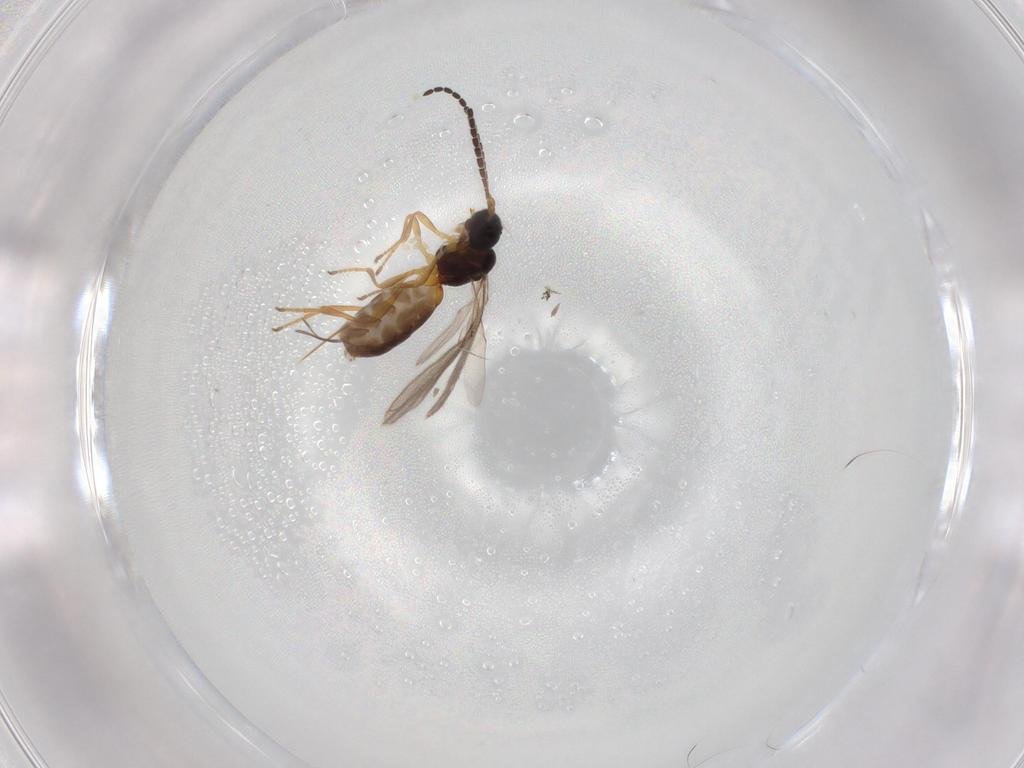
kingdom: Animalia
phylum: Arthropoda
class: Insecta
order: Hymenoptera
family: Braconidae
